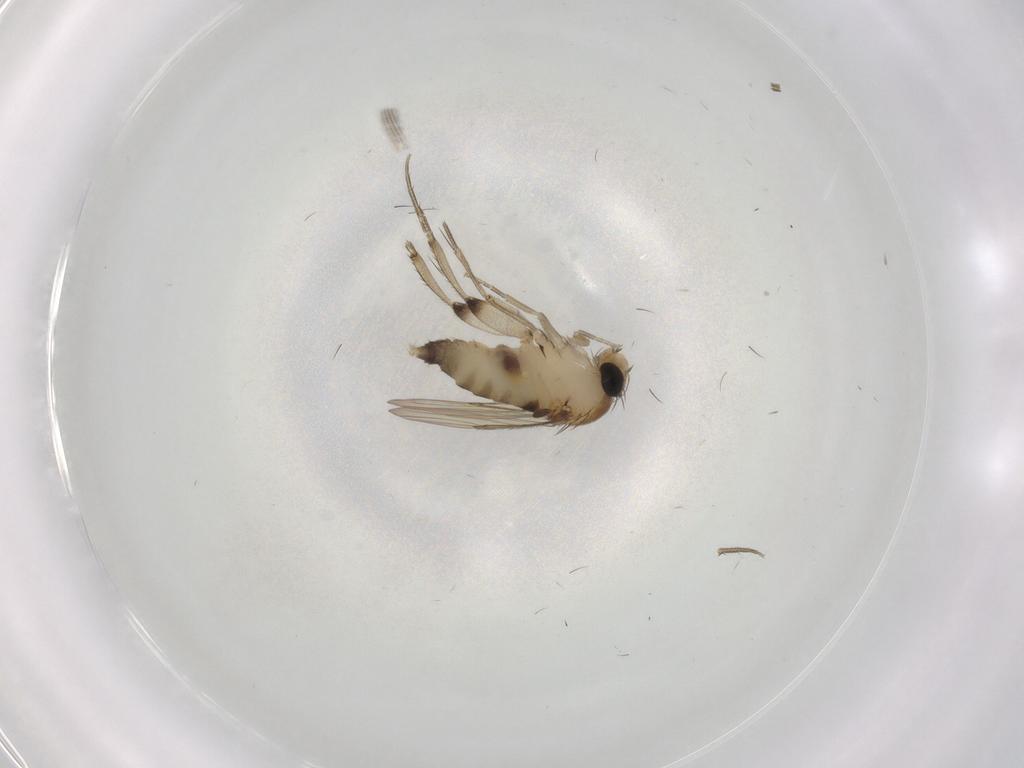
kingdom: Animalia
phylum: Arthropoda
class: Insecta
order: Diptera
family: Phoridae
